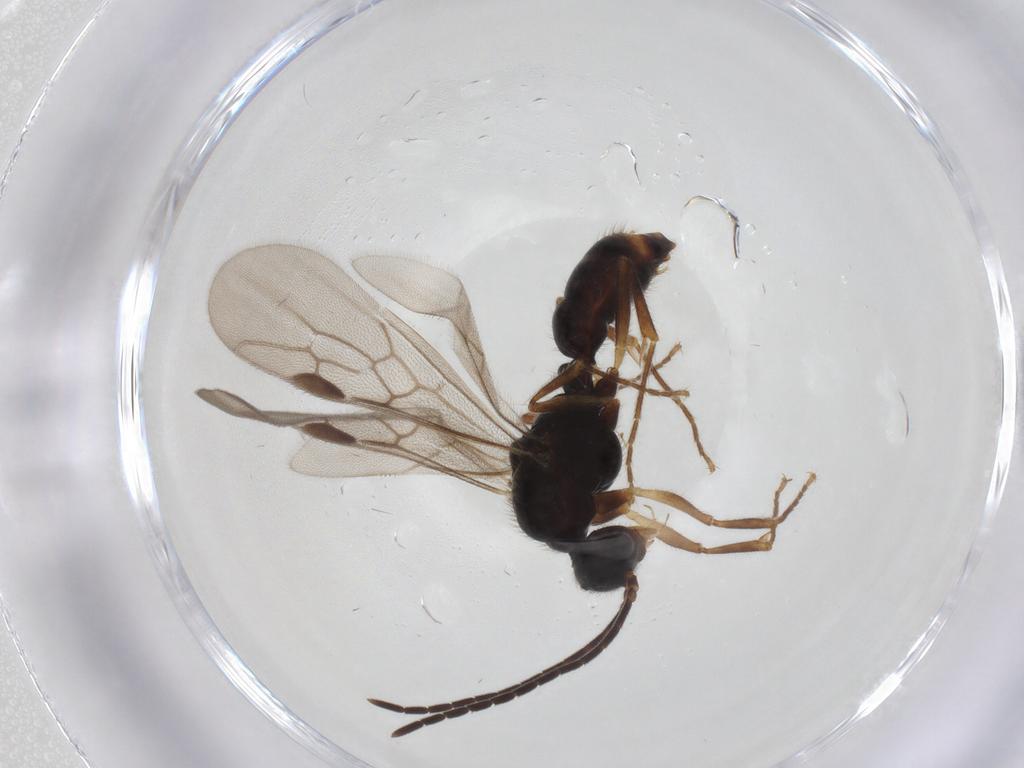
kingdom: Animalia
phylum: Arthropoda
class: Insecta
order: Hymenoptera
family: Formicidae
